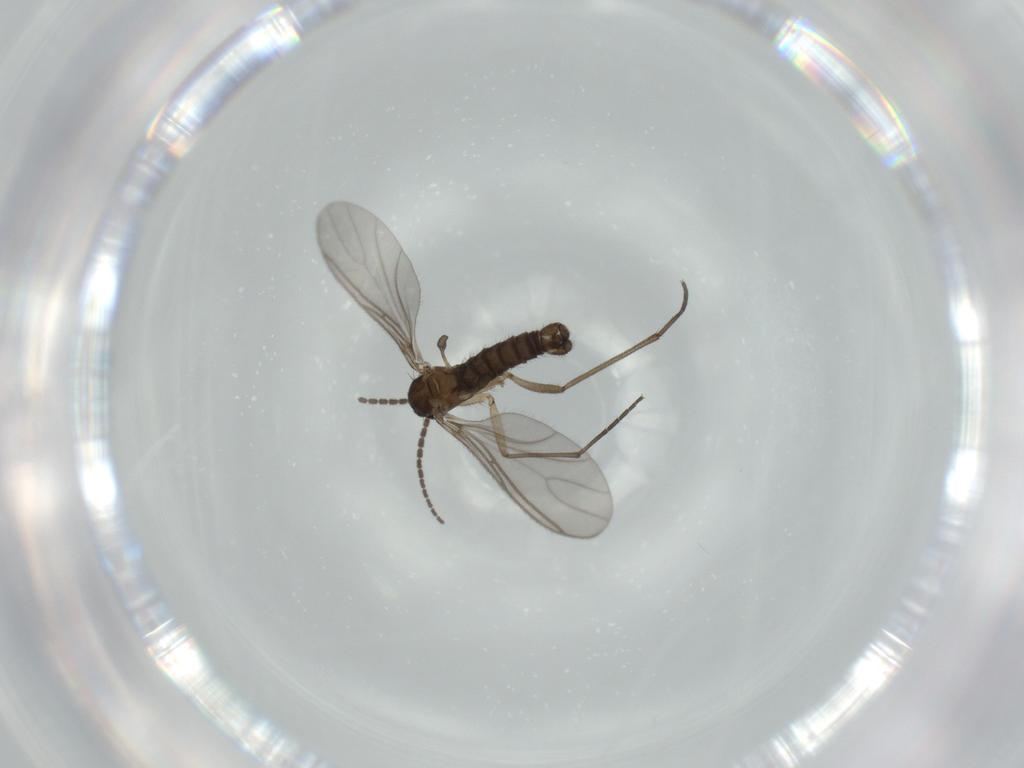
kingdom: Animalia
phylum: Arthropoda
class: Insecta
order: Diptera
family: Sciaridae
